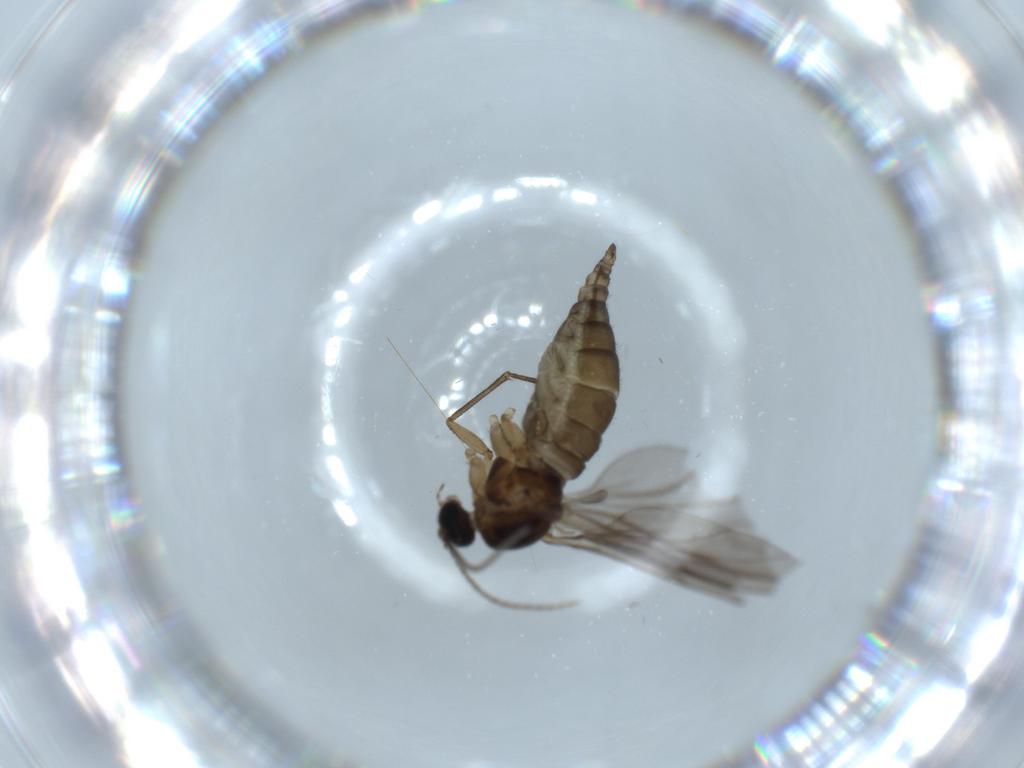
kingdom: Animalia
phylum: Arthropoda
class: Insecta
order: Diptera
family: Sciaridae
